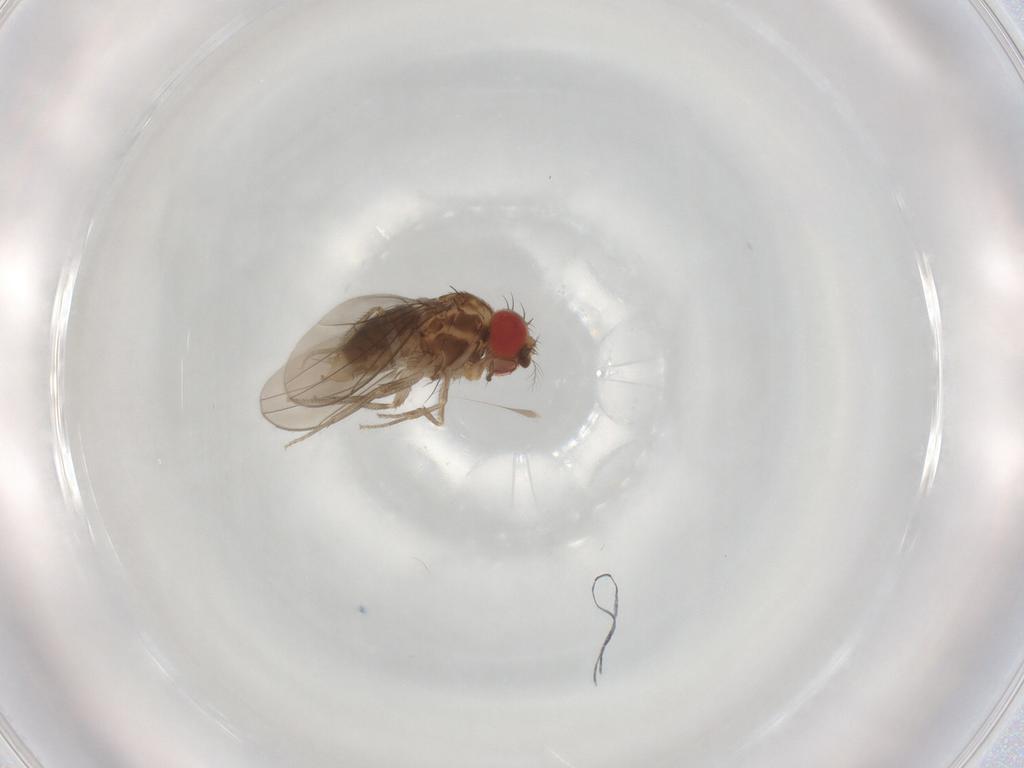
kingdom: Animalia
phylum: Arthropoda
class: Insecta
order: Diptera
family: Drosophilidae
